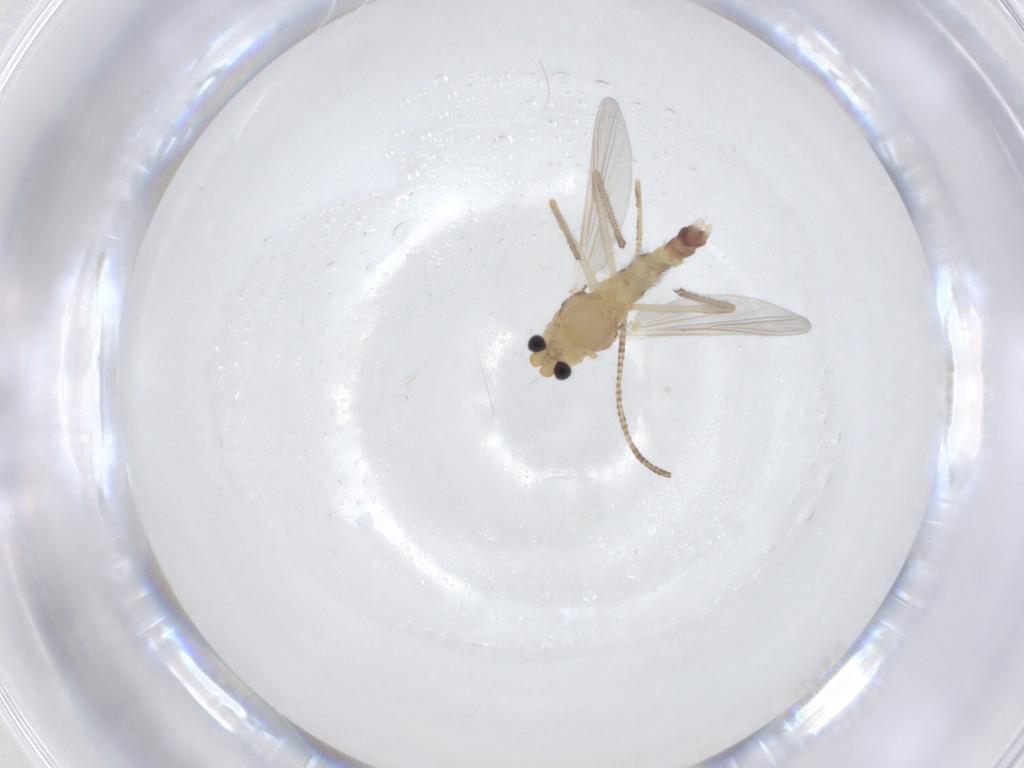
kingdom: Animalia
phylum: Arthropoda
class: Insecta
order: Diptera
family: Chironomidae
